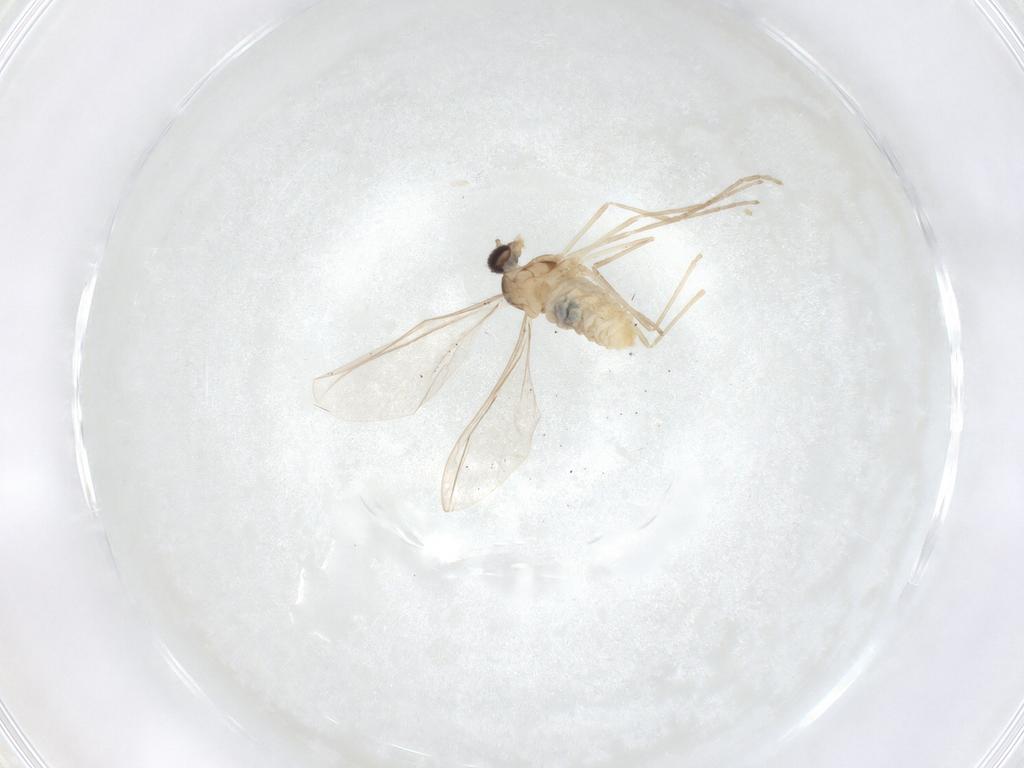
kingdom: Animalia
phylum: Arthropoda
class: Insecta
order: Diptera
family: Cecidomyiidae
